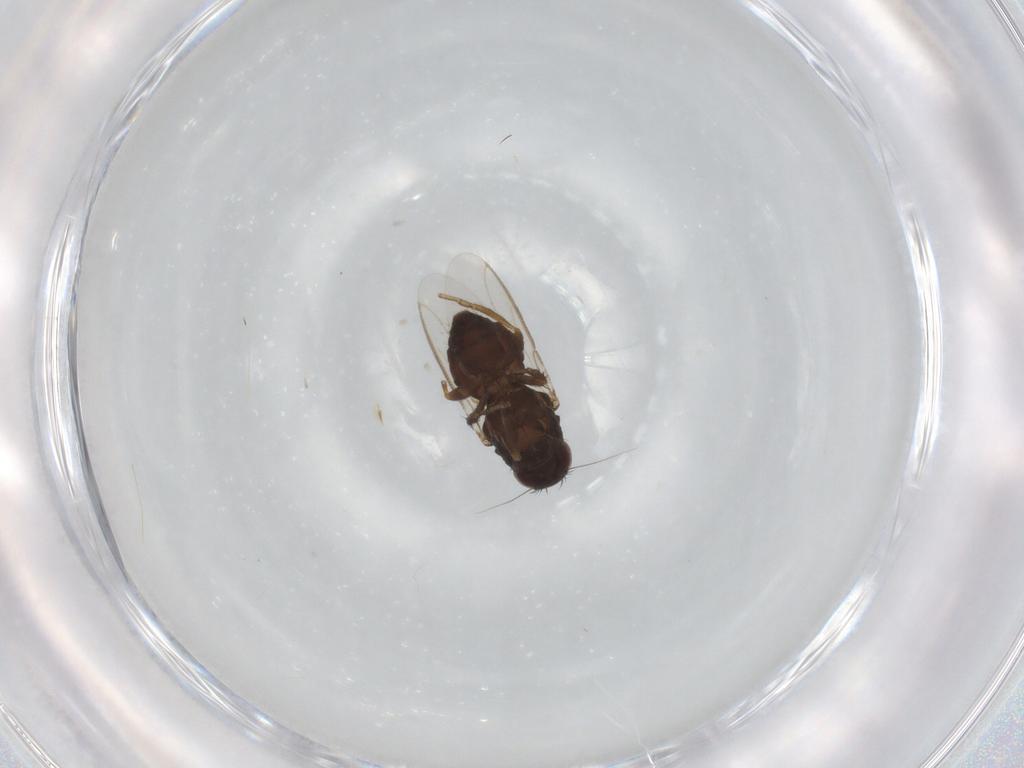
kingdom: Animalia
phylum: Arthropoda
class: Insecta
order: Diptera
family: Sphaeroceridae
